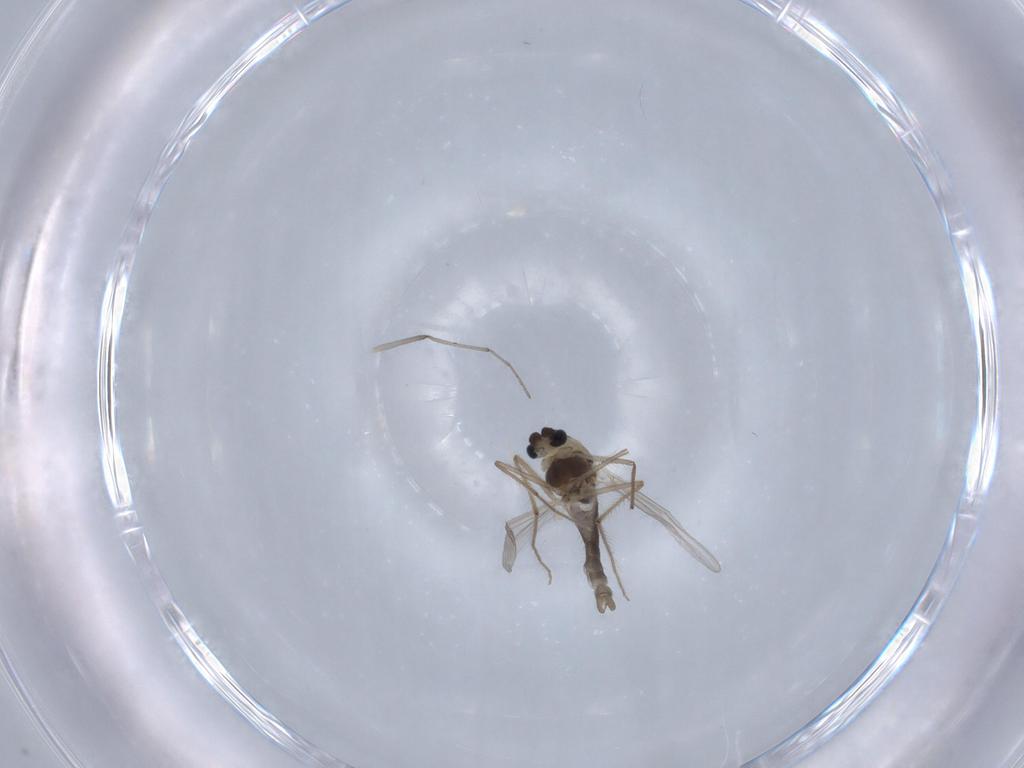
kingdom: Animalia
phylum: Arthropoda
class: Insecta
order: Diptera
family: Chironomidae
